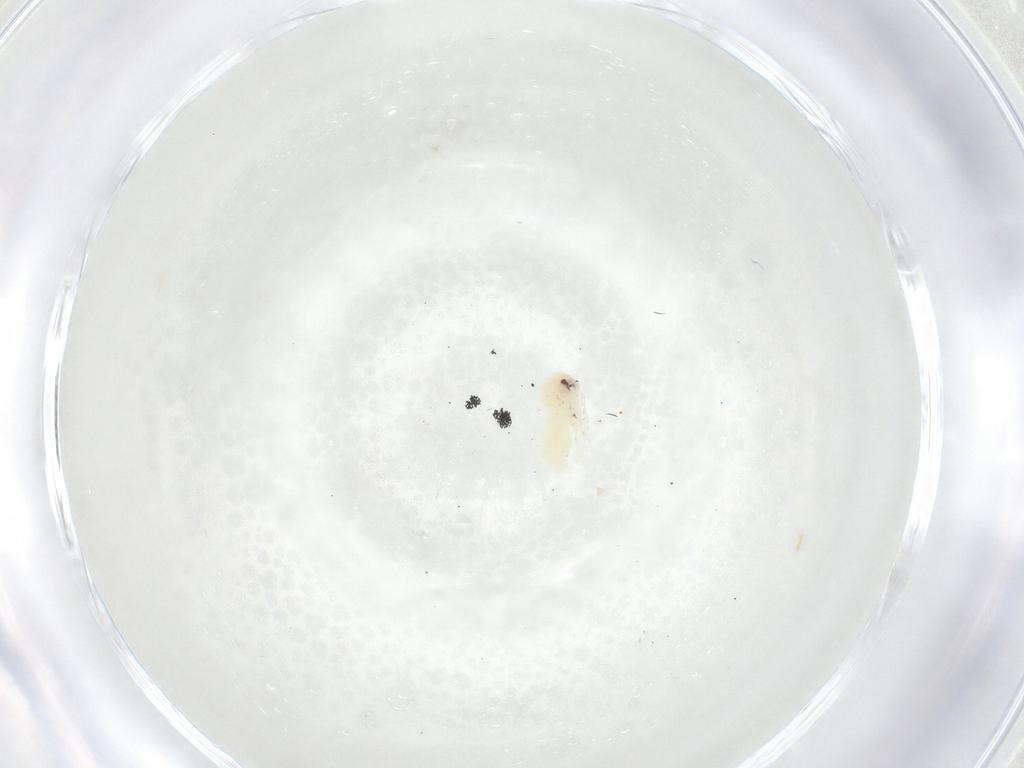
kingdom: Animalia
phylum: Arthropoda
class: Insecta
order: Hemiptera
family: Aleyrodidae
